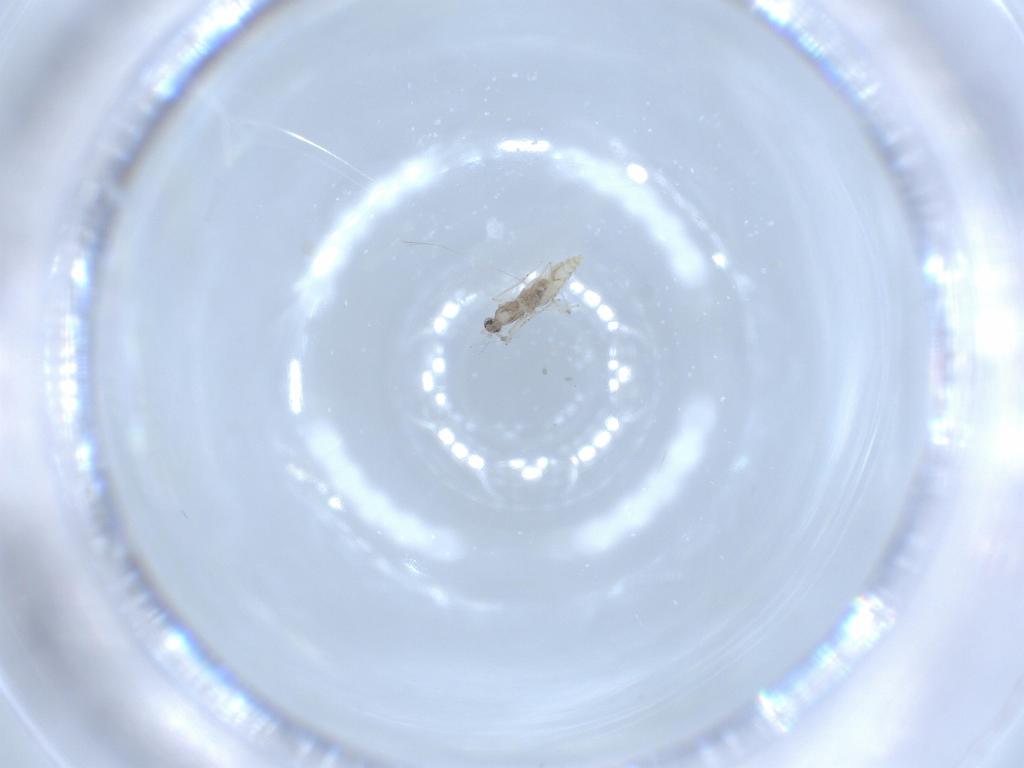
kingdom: Animalia
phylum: Arthropoda
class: Insecta
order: Diptera
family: Cecidomyiidae
